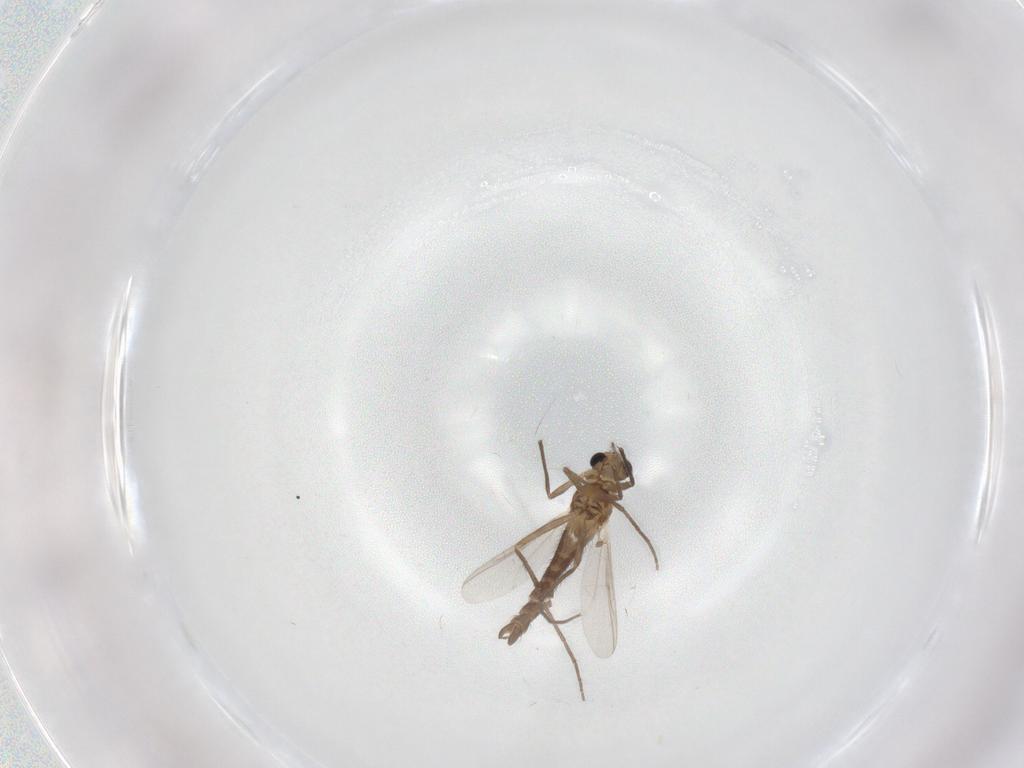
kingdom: Animalia
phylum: Arthropoda
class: Insecta
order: Diptera
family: Chironomidae
